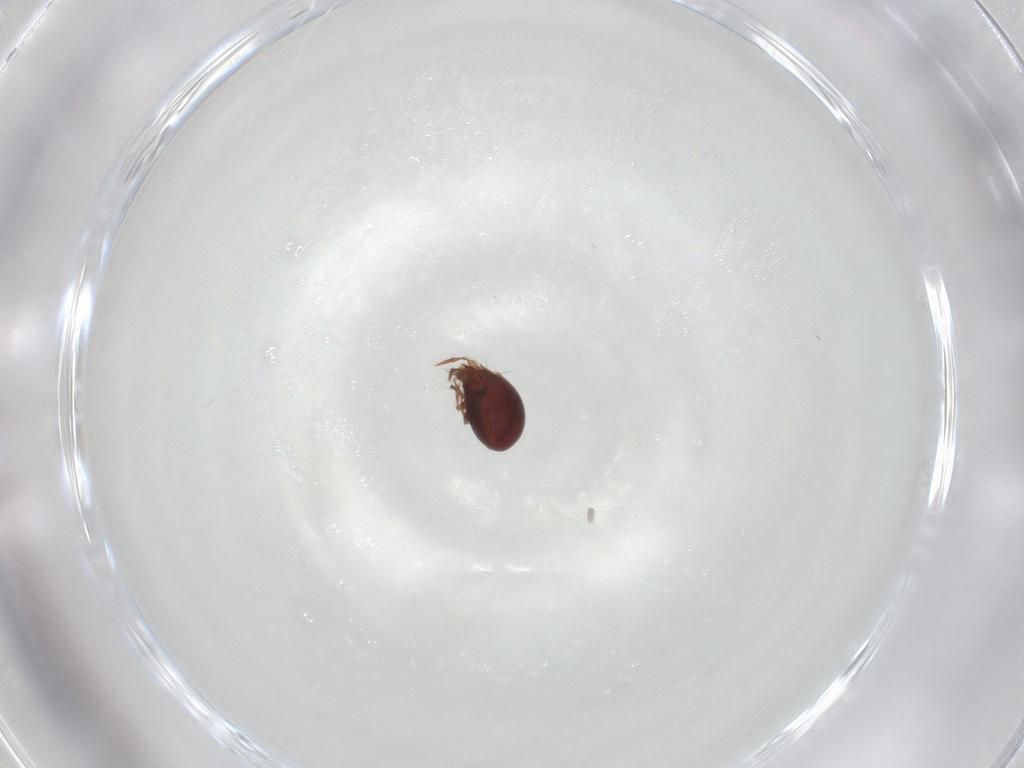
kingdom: Animalia
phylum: Arthropoda
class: Arachnida
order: Sarcoptiformes
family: Ceratozetidae
